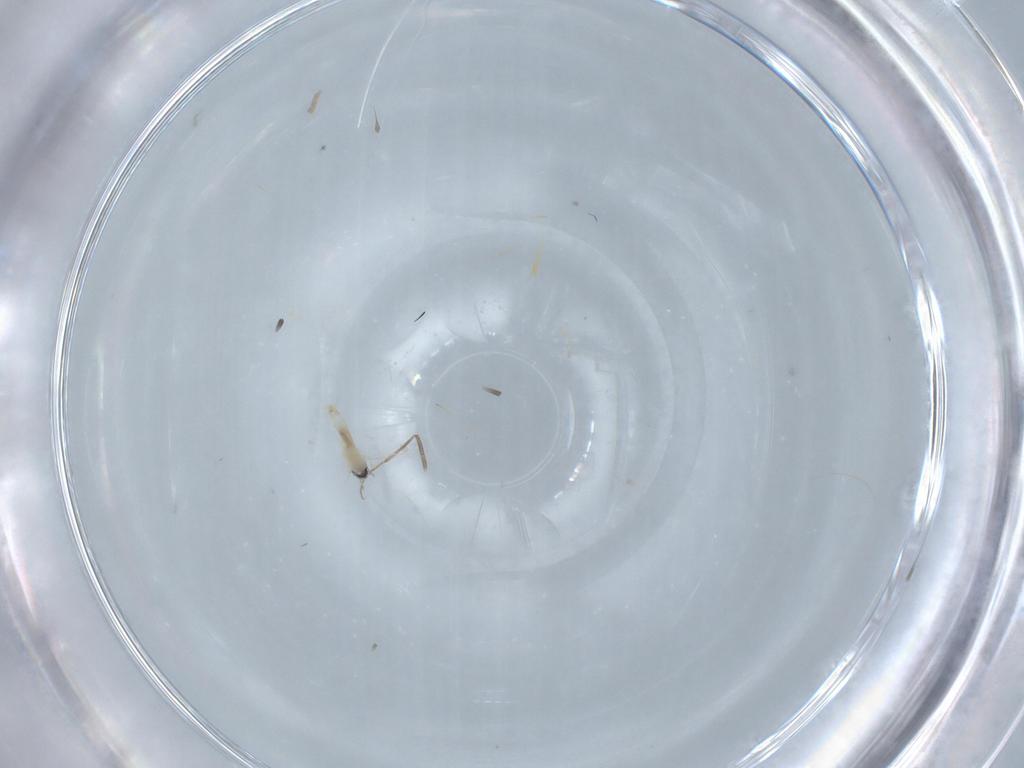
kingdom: Animalia
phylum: Arthropoda
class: Insecta
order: Diptera
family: Cecidomyiidae
